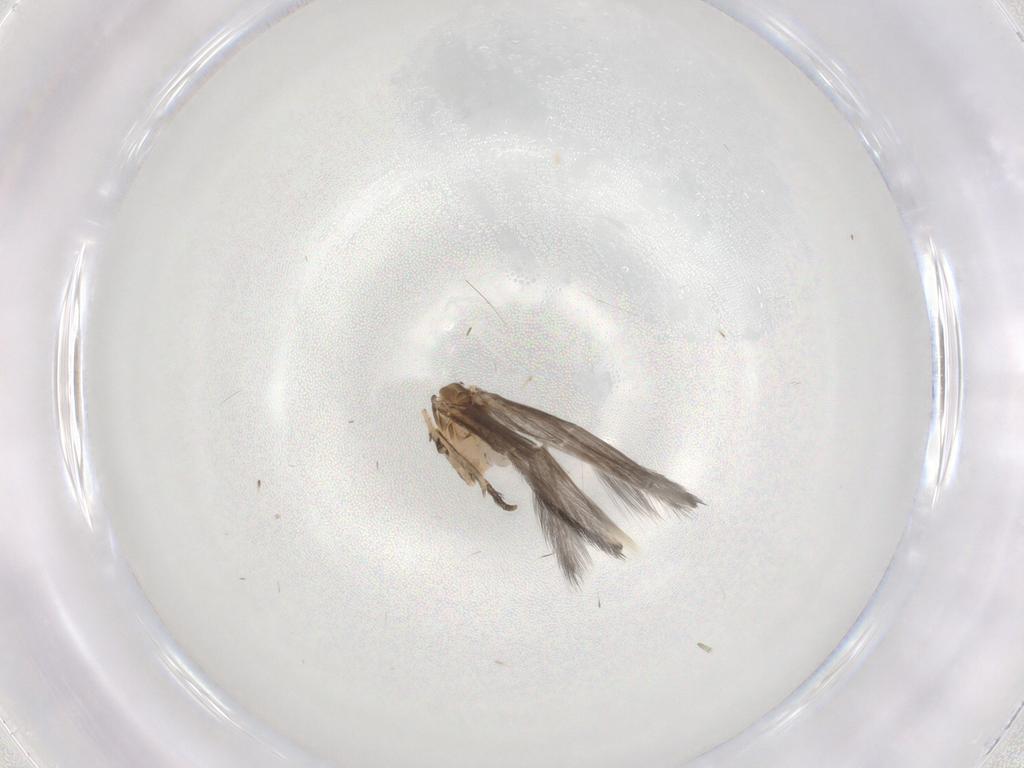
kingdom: Animalia
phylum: Arthropoda
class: Insecta
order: Trichoptera
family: Hydroptilidae
